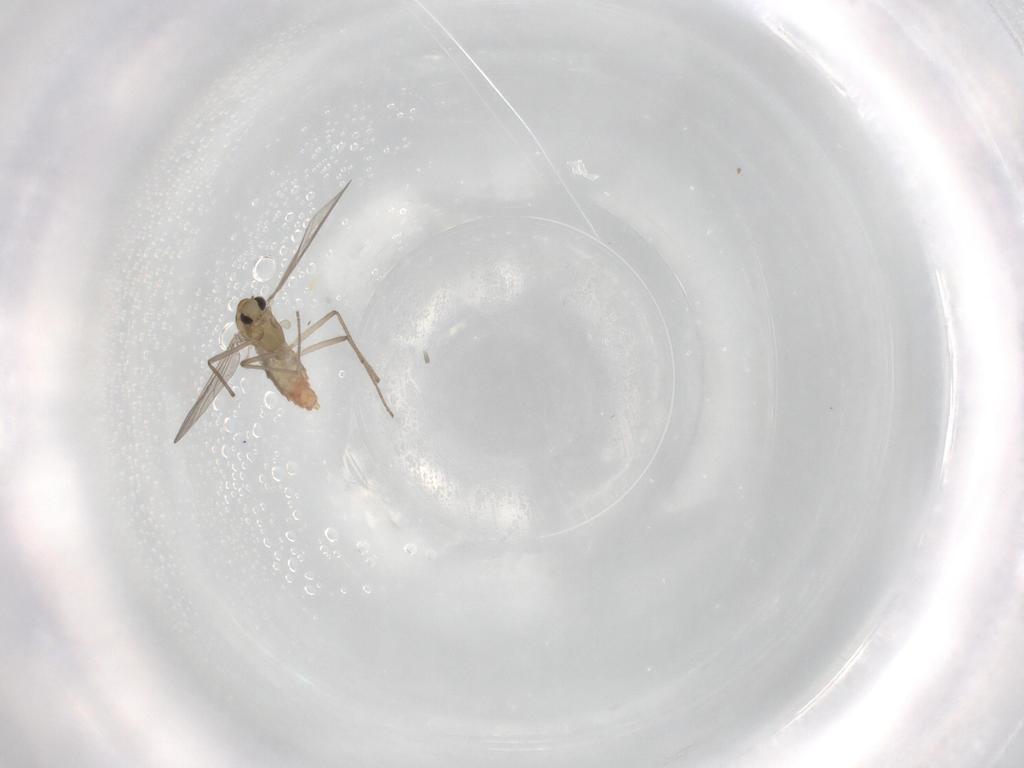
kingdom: Animalia
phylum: Arthropoda
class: Insecta
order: Diptera
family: Chironomidae
